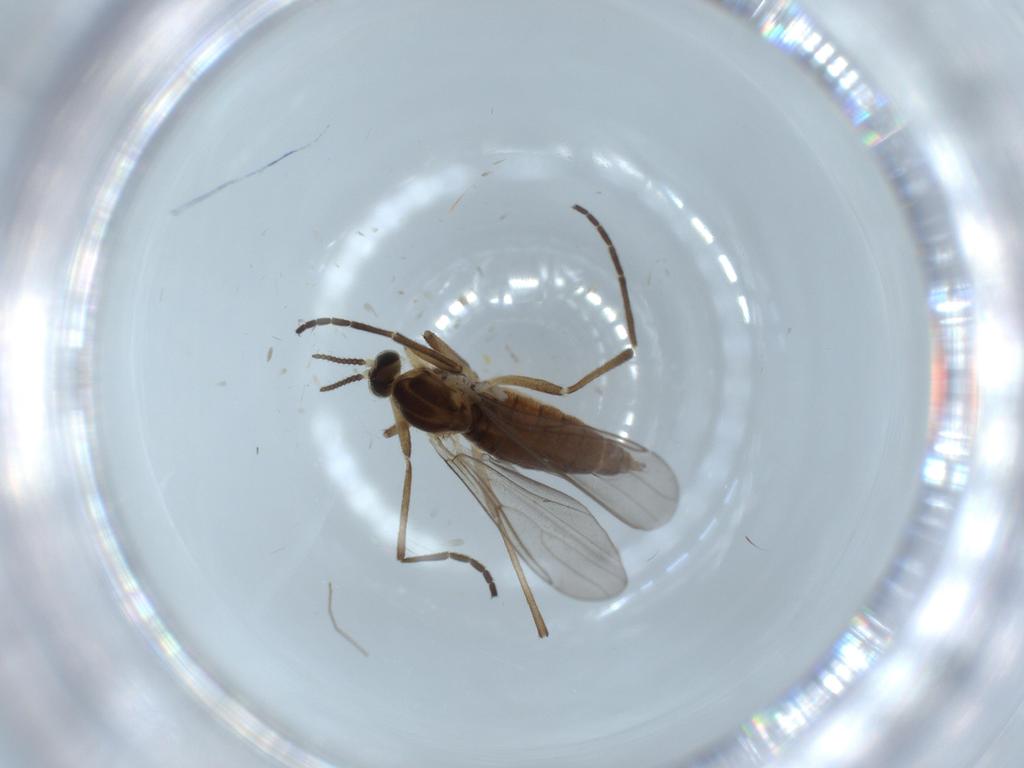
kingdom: Animalia
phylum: Arthropoda
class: Insecta
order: Diptera
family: Cecidomyiidae
